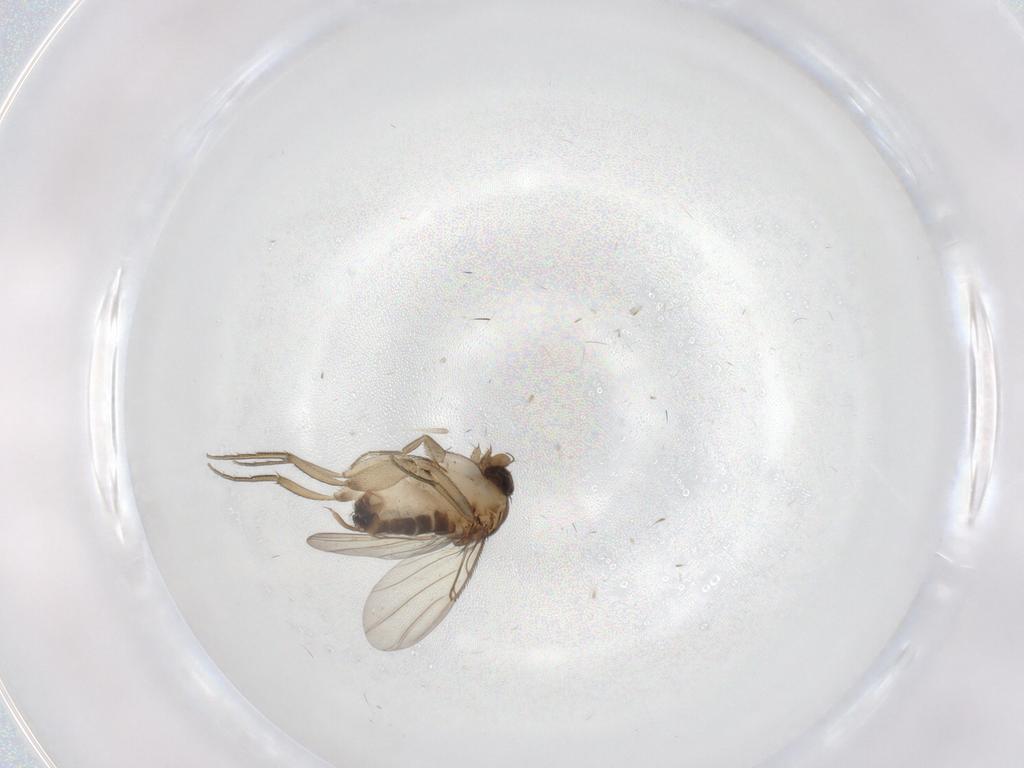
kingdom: Animalia
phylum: Arthropoda
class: Insecta
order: Diptera
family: Phoridae
